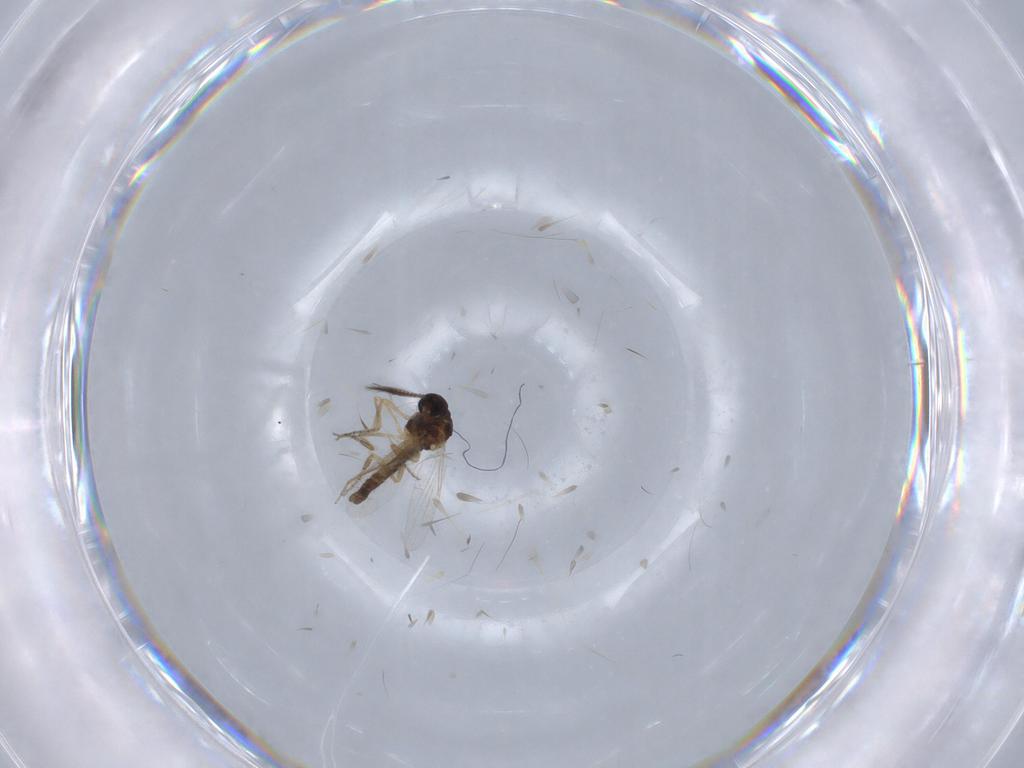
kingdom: Animalia
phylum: Arthropoda
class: Insecta
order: Diptera
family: Ceratopogonidae
